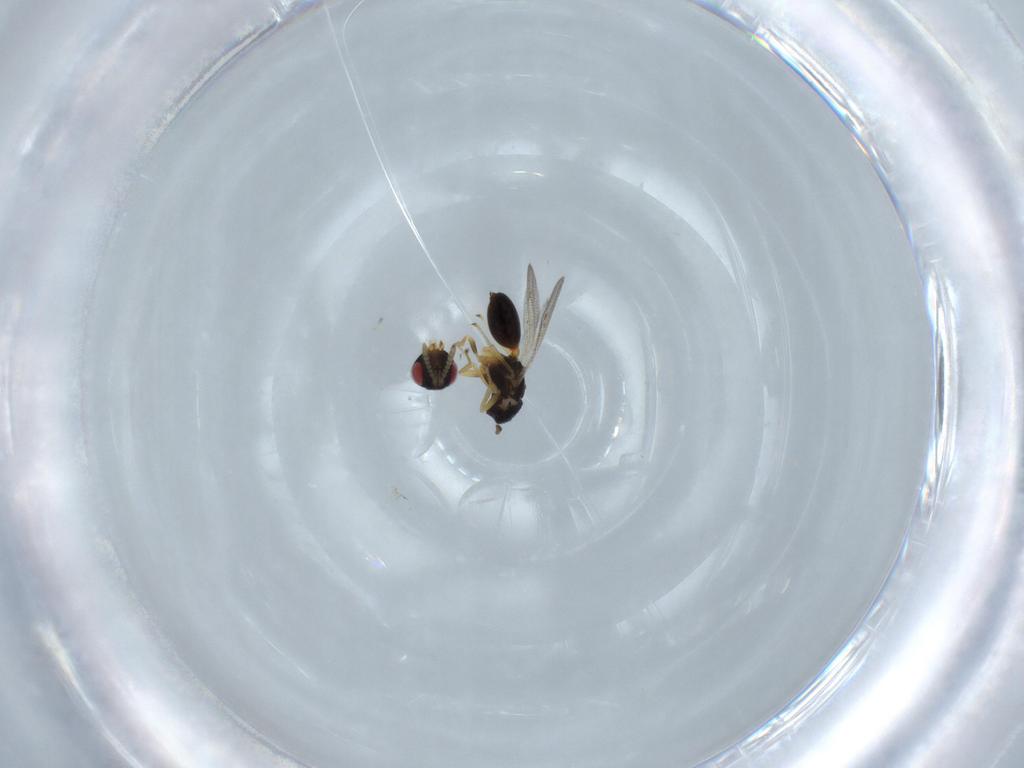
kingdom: Animalia
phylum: Arthropoda
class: Insecta
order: Hymenoptera
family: Eurytomidae
